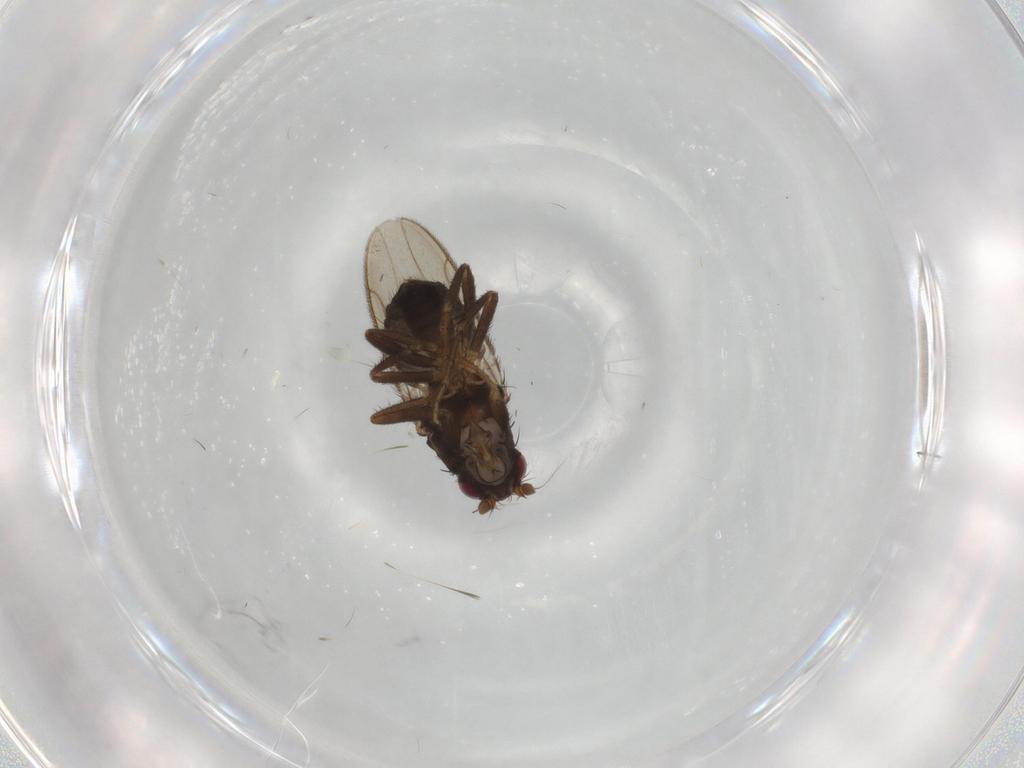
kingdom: Animalia
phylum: Arthropoda
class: Insecta
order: Diptera
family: Sphaeroceridae
